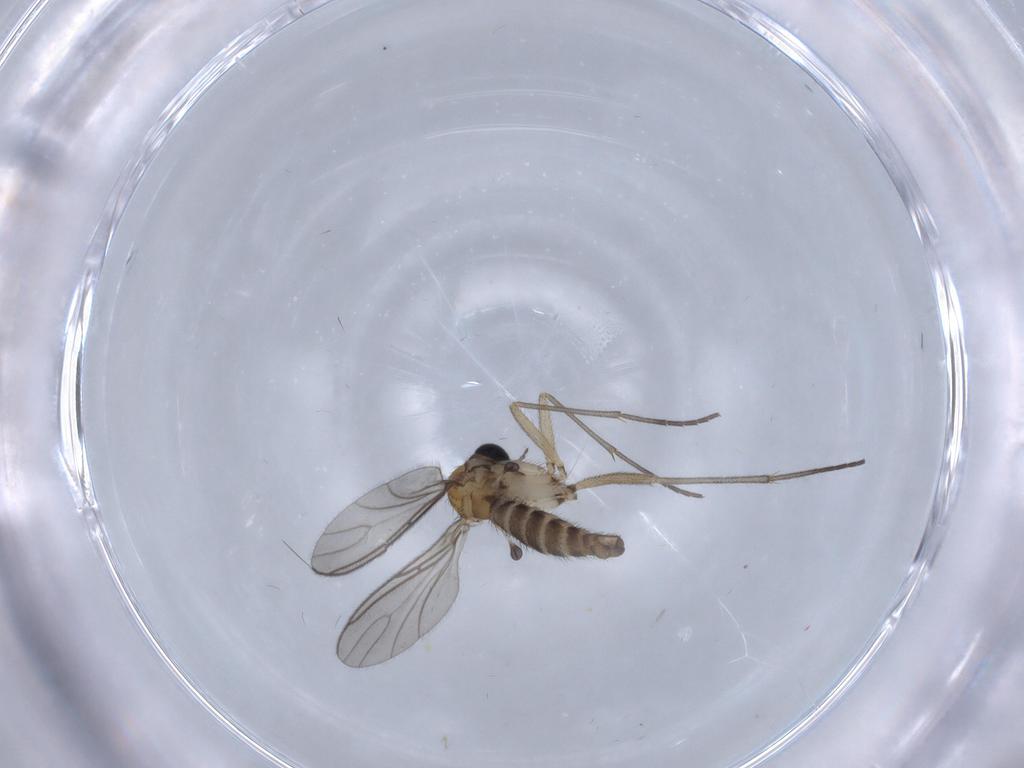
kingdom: Animalia
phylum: Arthropoda
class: Insecta
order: Diptera
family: Sciaridae
